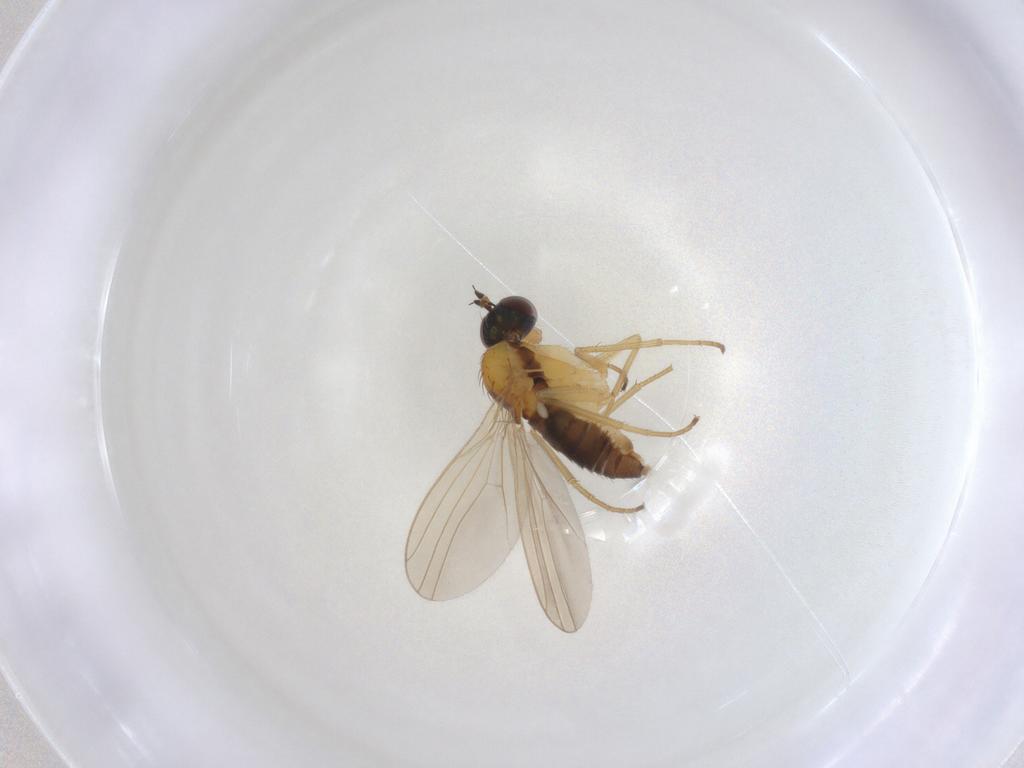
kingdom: Animalia
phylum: Arthropoda
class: Insecta
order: Diptera
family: Dolichopodidae
